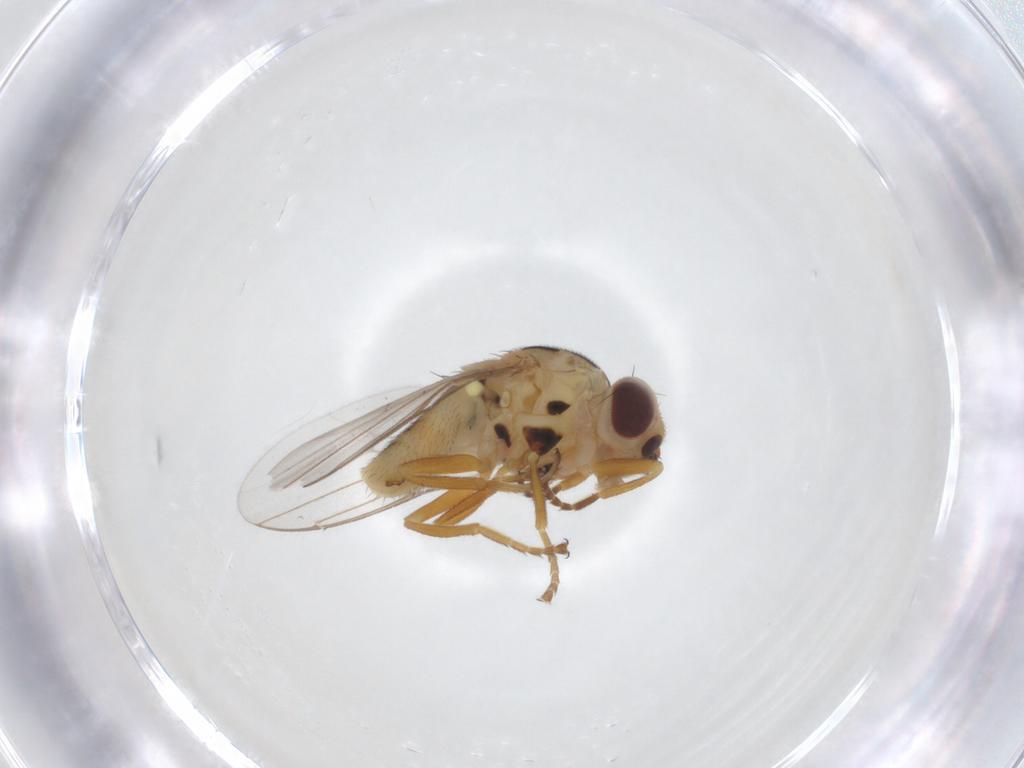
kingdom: Animalia
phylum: Arthropoda
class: Insecta
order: Diptera
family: Chloropidae
